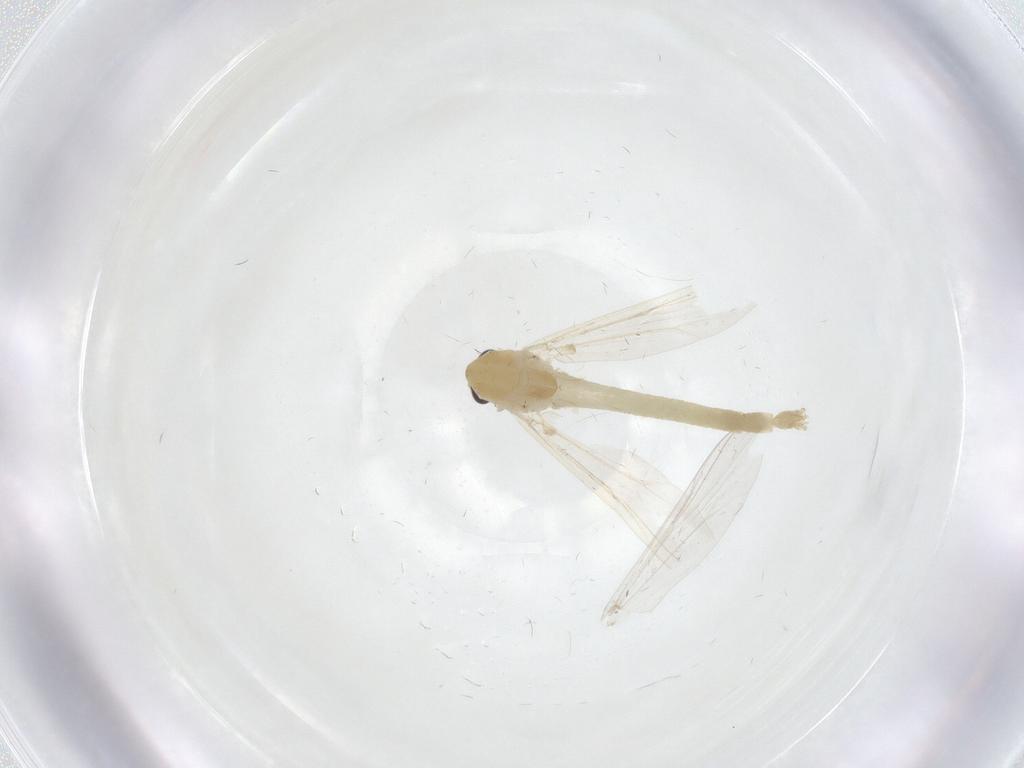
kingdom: Animalia
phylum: Arthropoda
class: Insecta
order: Diptera
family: Chironomidae
